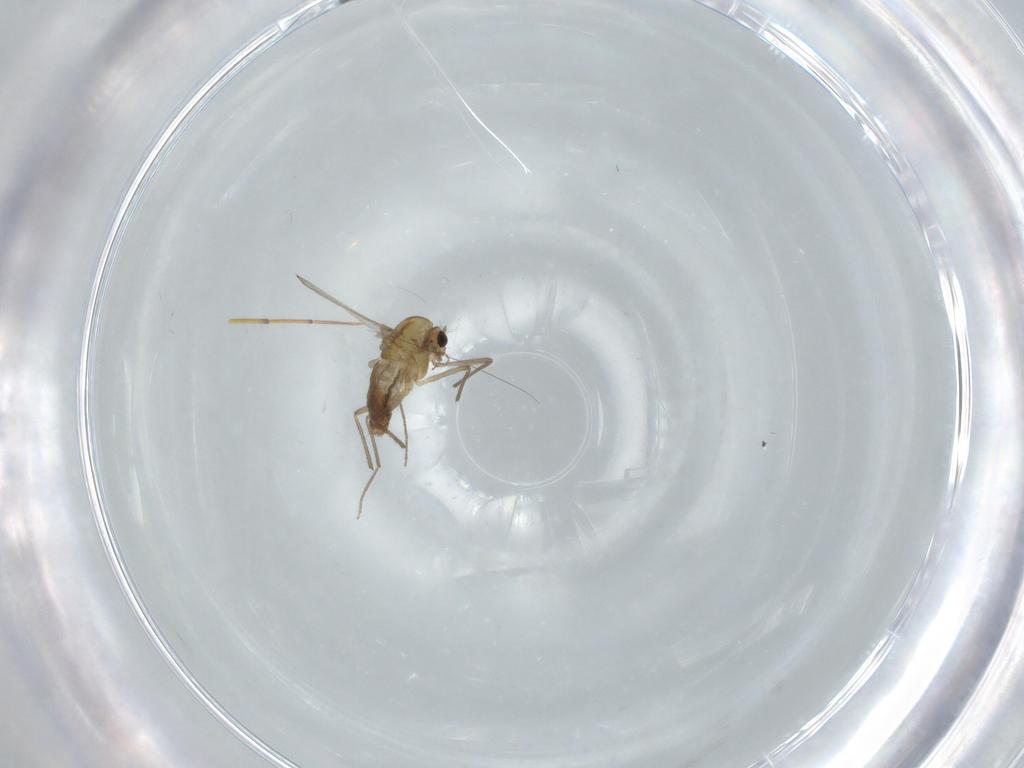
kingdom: Animalia
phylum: Arthropoda
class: Insecta
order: Diptera
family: Chironomidae
